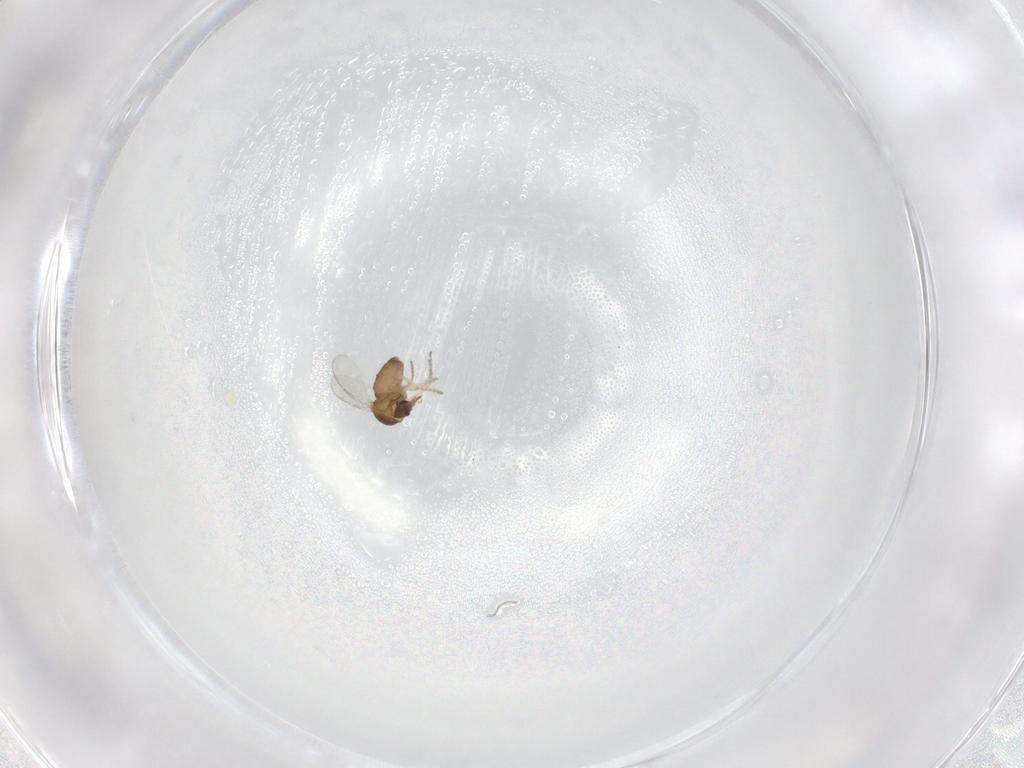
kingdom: Animalia
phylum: Arthropoda
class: Insecta
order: Diptera
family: Ceratopogonidae
